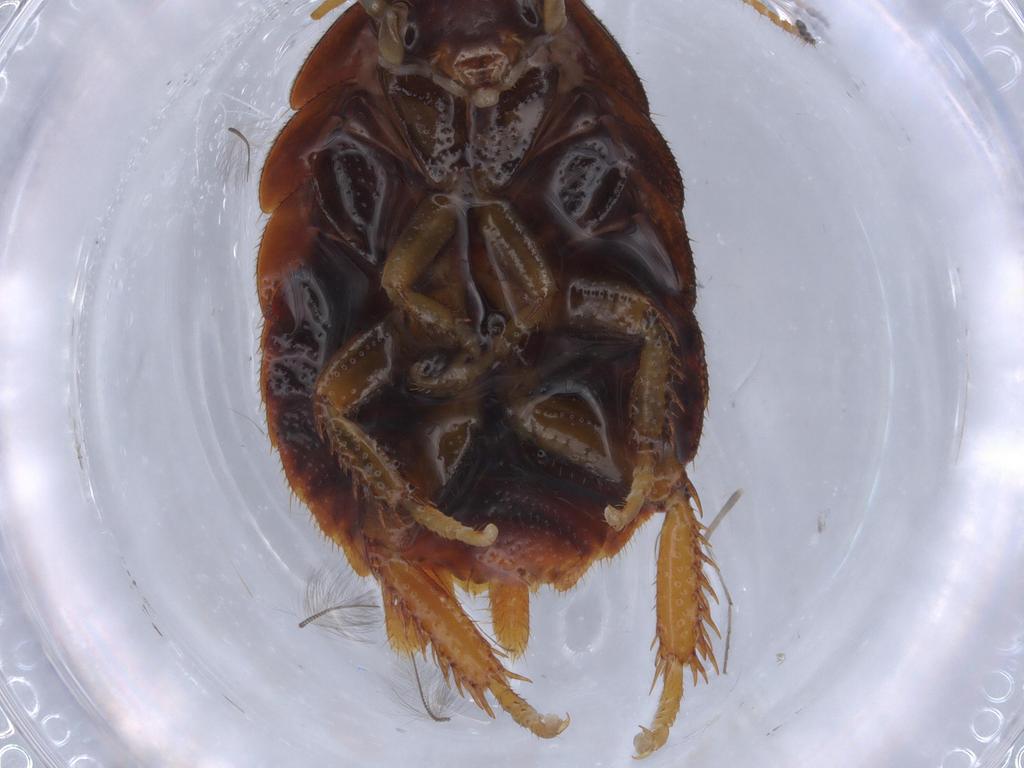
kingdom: Animalia
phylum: Arthropoda
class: Insecta
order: Blattodea
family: Ectobiidae
